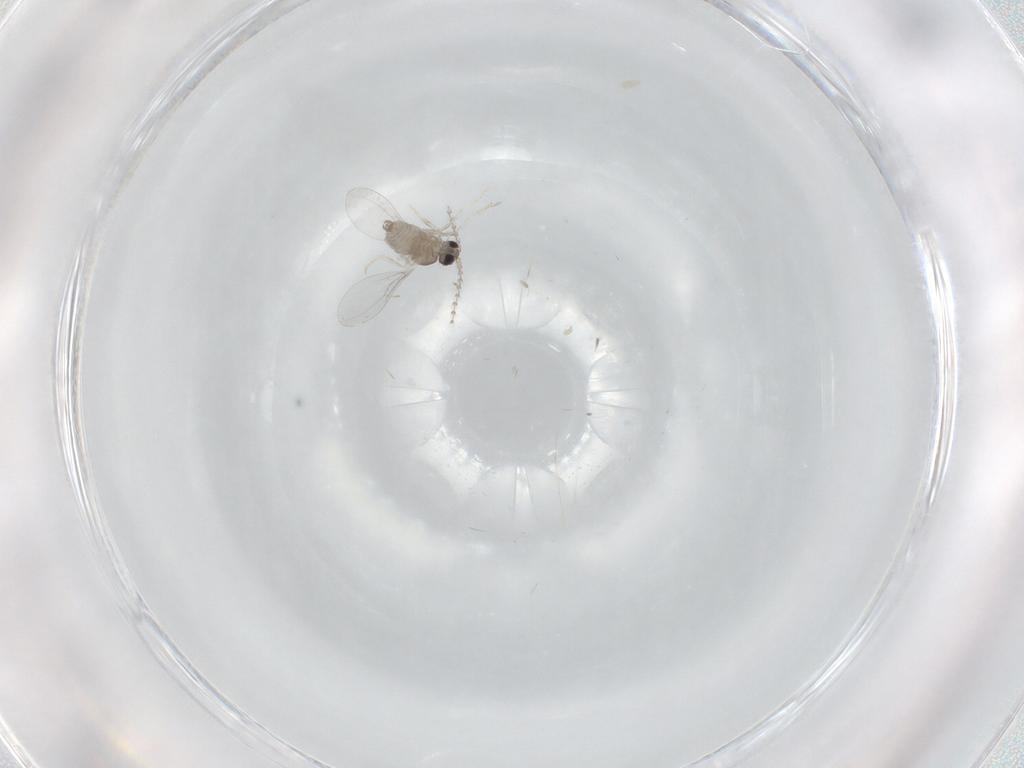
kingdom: Animalia
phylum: Arthropoda
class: Insecta
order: Diptera
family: Cecidomyiidae
